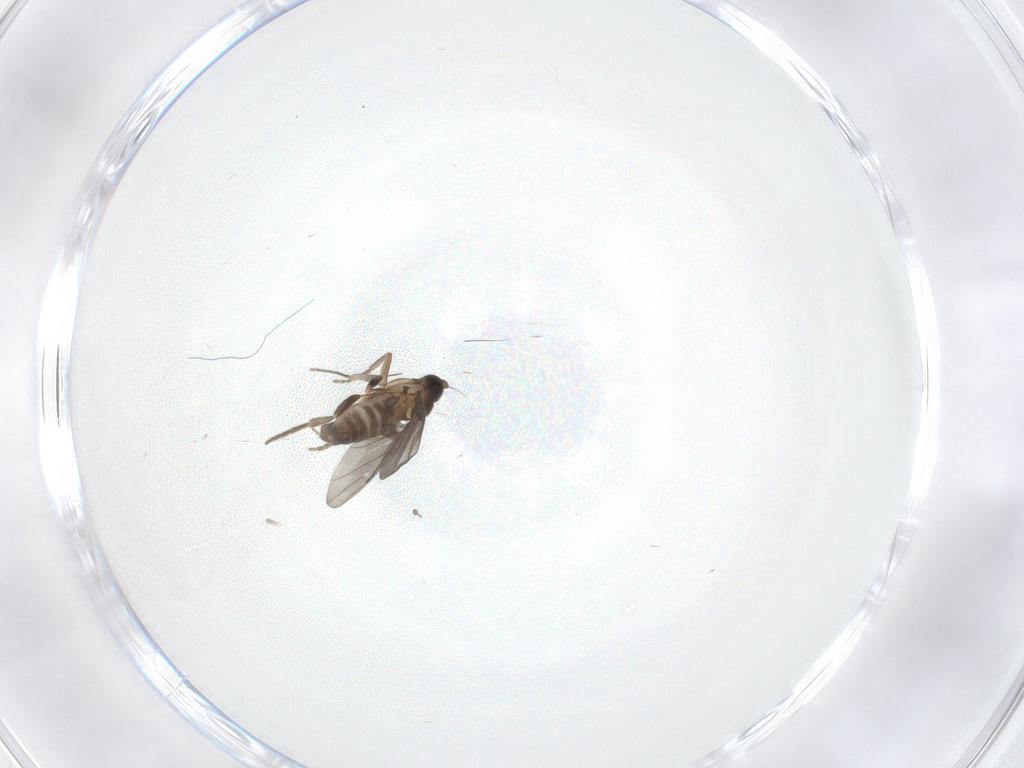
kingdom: Animalia
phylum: Arthropoda
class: Insecta
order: Diptera
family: Phoridae
